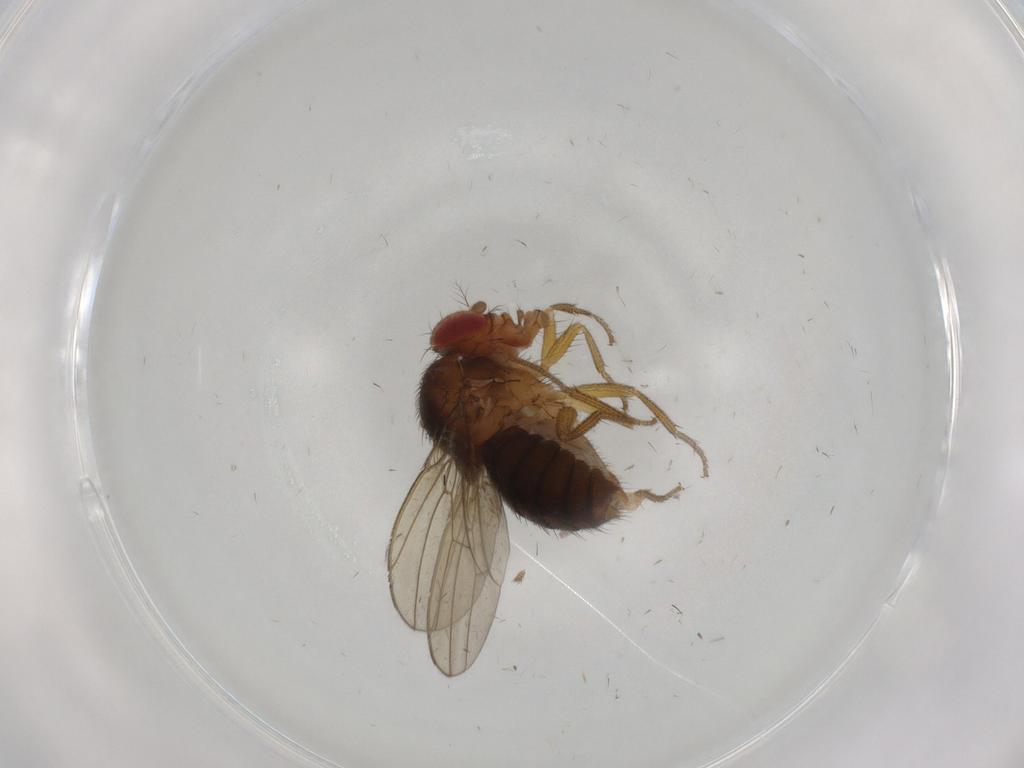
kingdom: Animalia
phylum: Arthropoda
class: Insecta
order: Diptera
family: Drosophilidae
